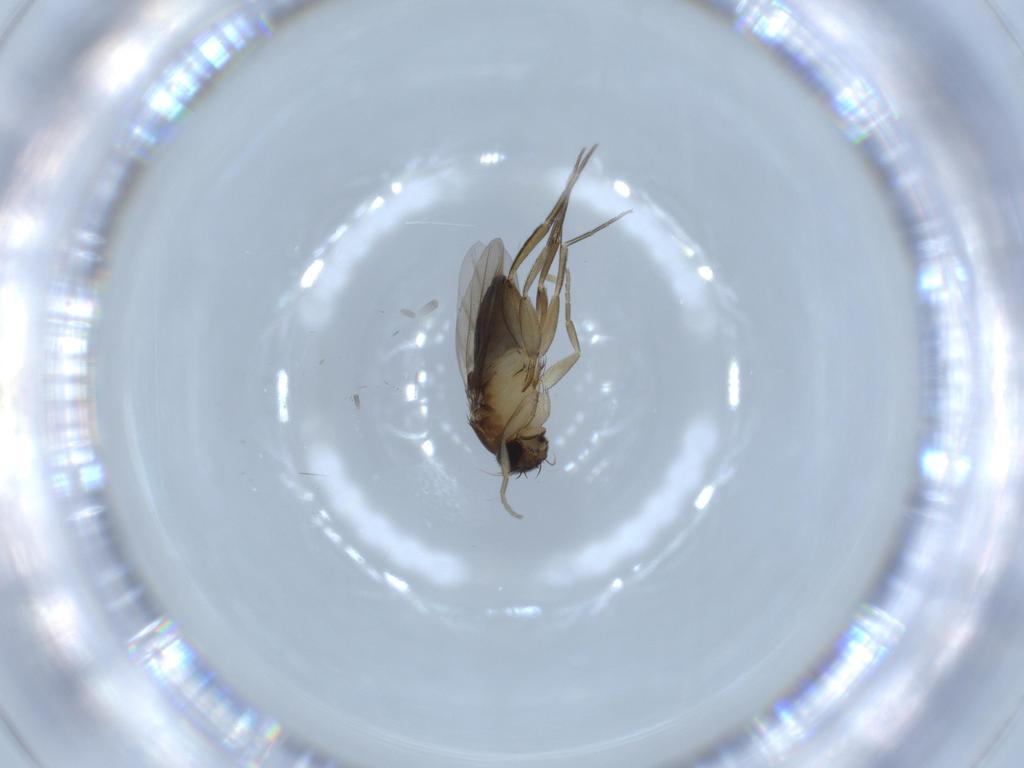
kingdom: Animalia
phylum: Arthropoda
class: Insecta
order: Diptera
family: Phoridae
